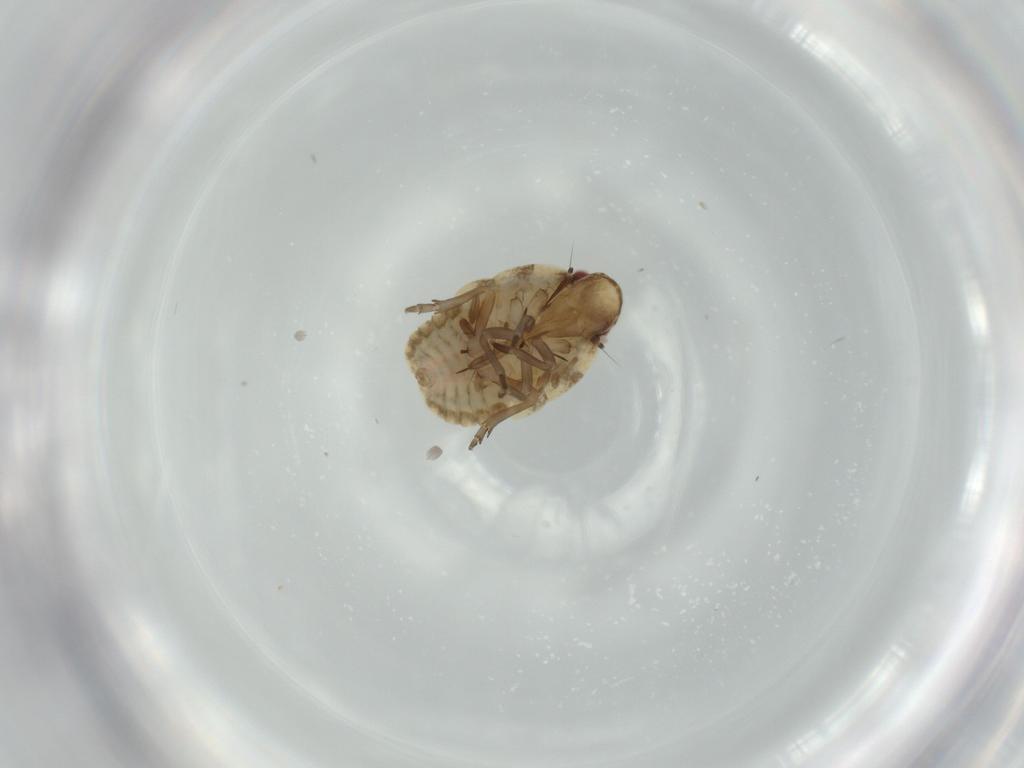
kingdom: Animalia
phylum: Arthropoda
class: Insecta
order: Hemiptera
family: Flatidae
